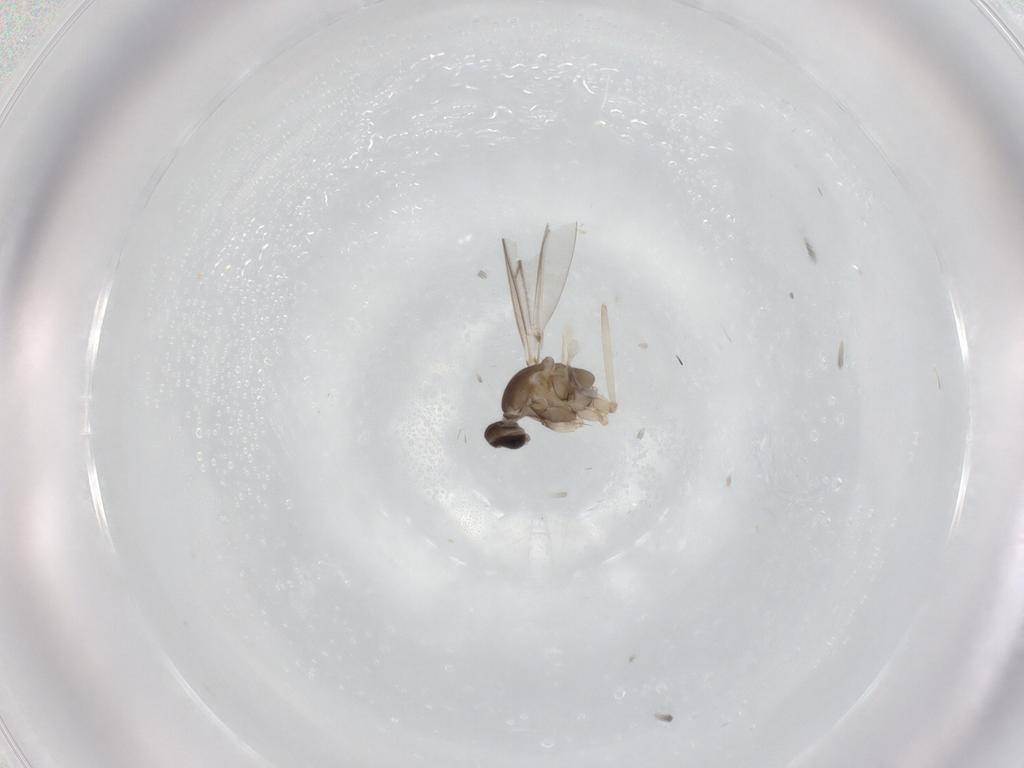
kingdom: Animalia
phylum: Arthropoda
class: Insecta
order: Diptera
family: Cecidomyiidae
